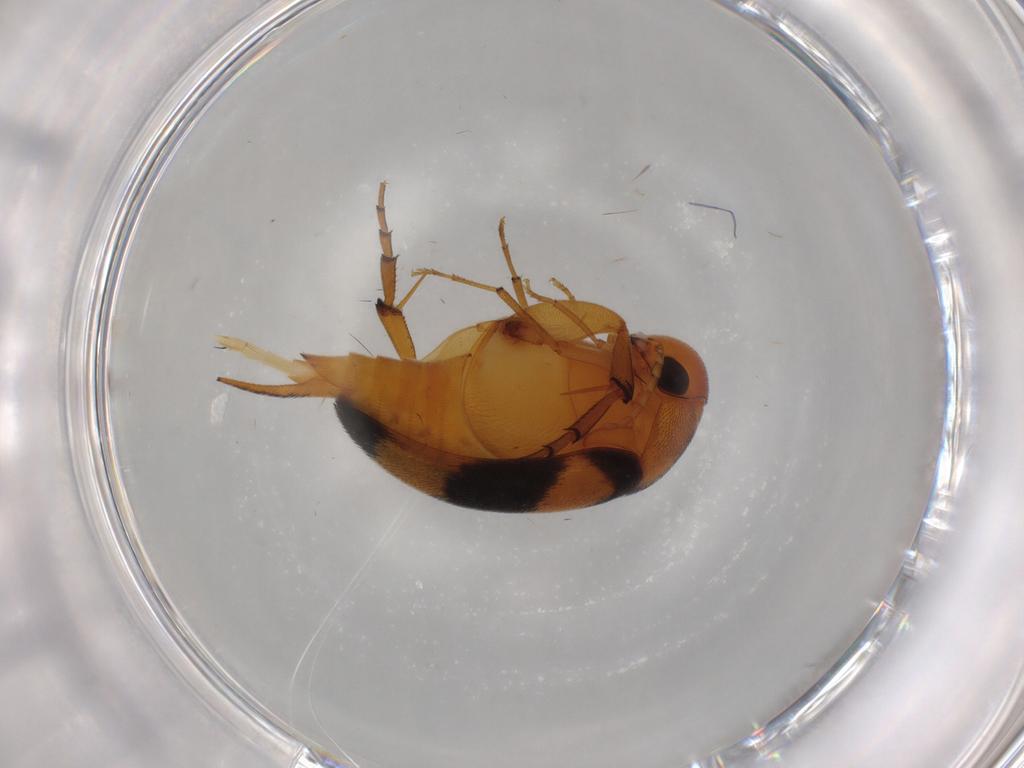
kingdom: Animalia
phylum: Arthropoda
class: Insecta
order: Coleoptera
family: Mordellidae
